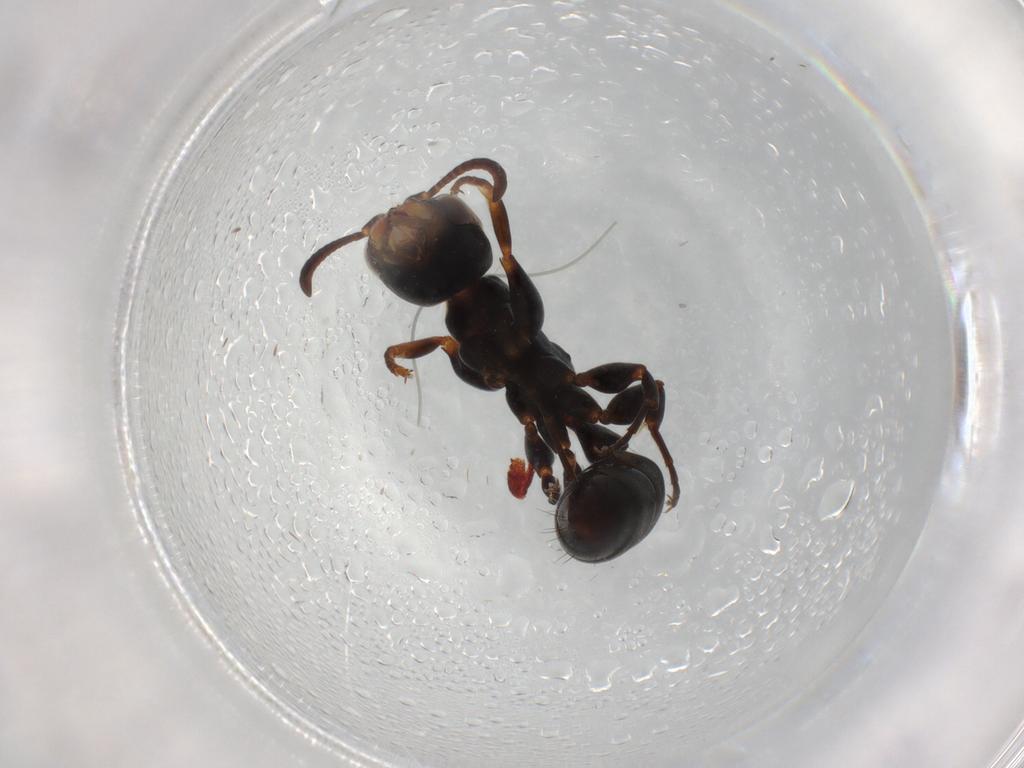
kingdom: Animalia
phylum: Arthropoda
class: Insecta
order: Hymenoptera
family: Formicidae
